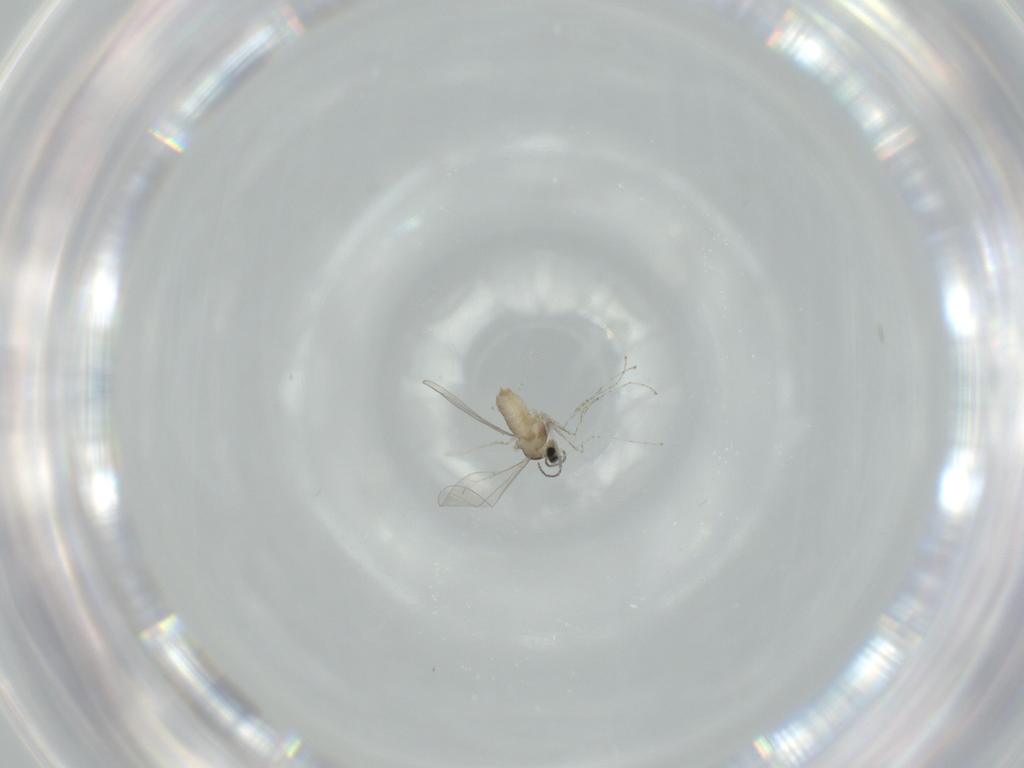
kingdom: Animalia
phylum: Arthropoda
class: Insecta
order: Diptera
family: Cecidomyiidae
